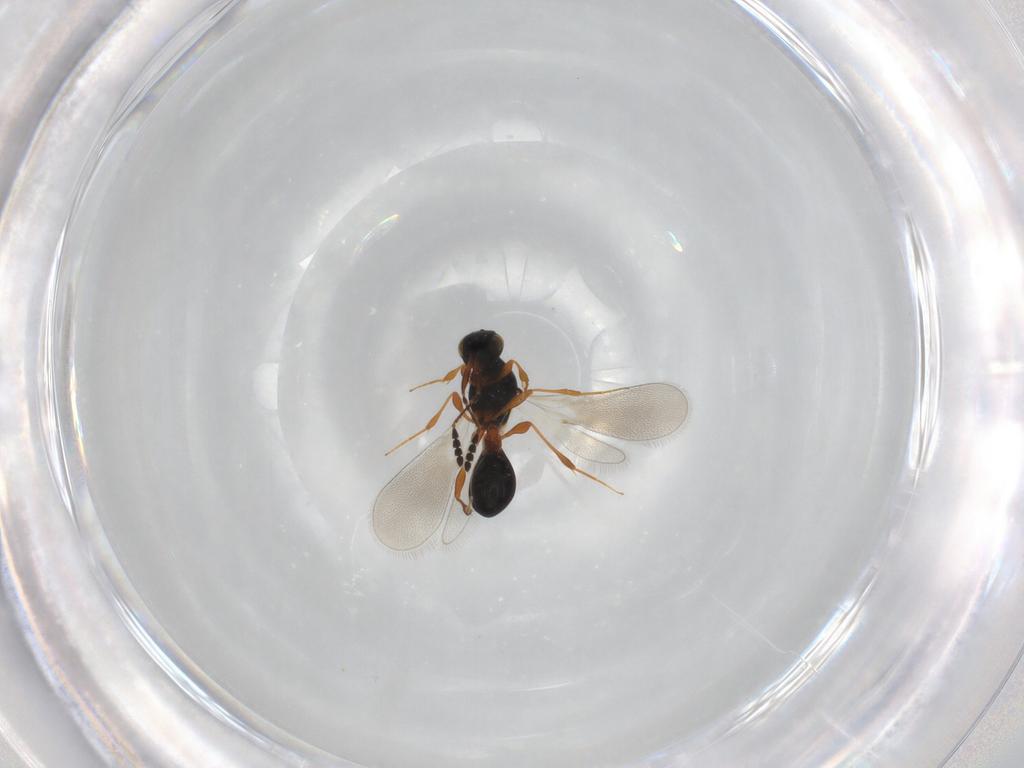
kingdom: Animalia
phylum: Arthropoda
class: Insecta
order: Hymenoptera
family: Platygastridae
